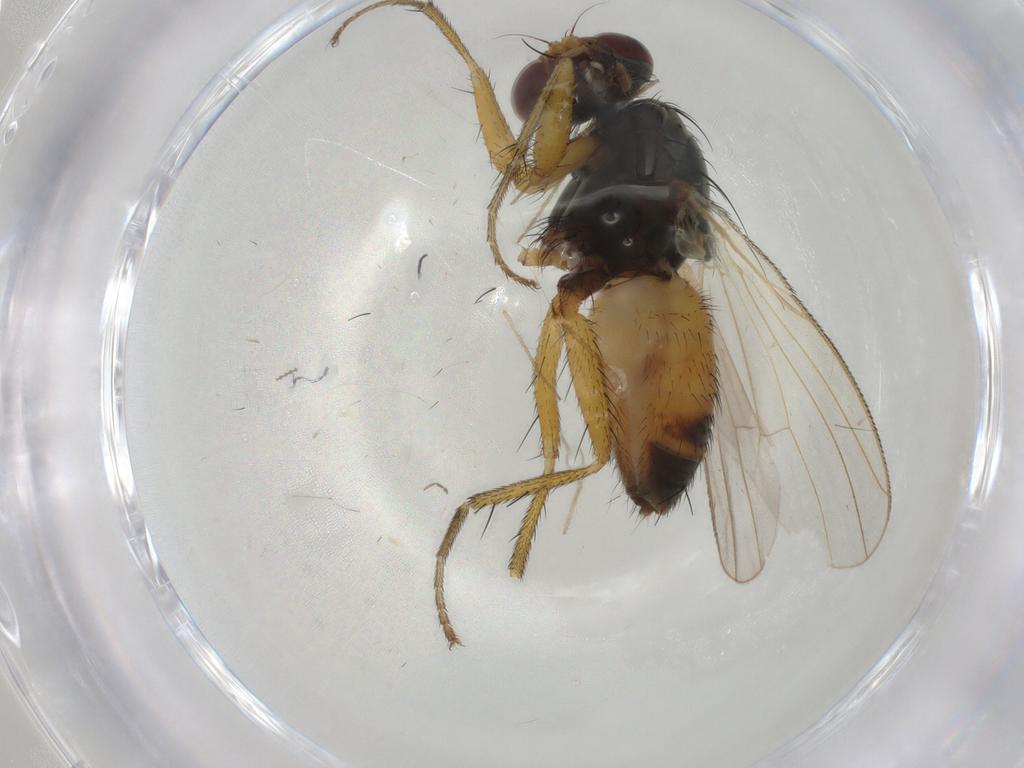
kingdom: Animalia
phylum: Arthropoda
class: Insecta
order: Diptera
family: Muscidae
